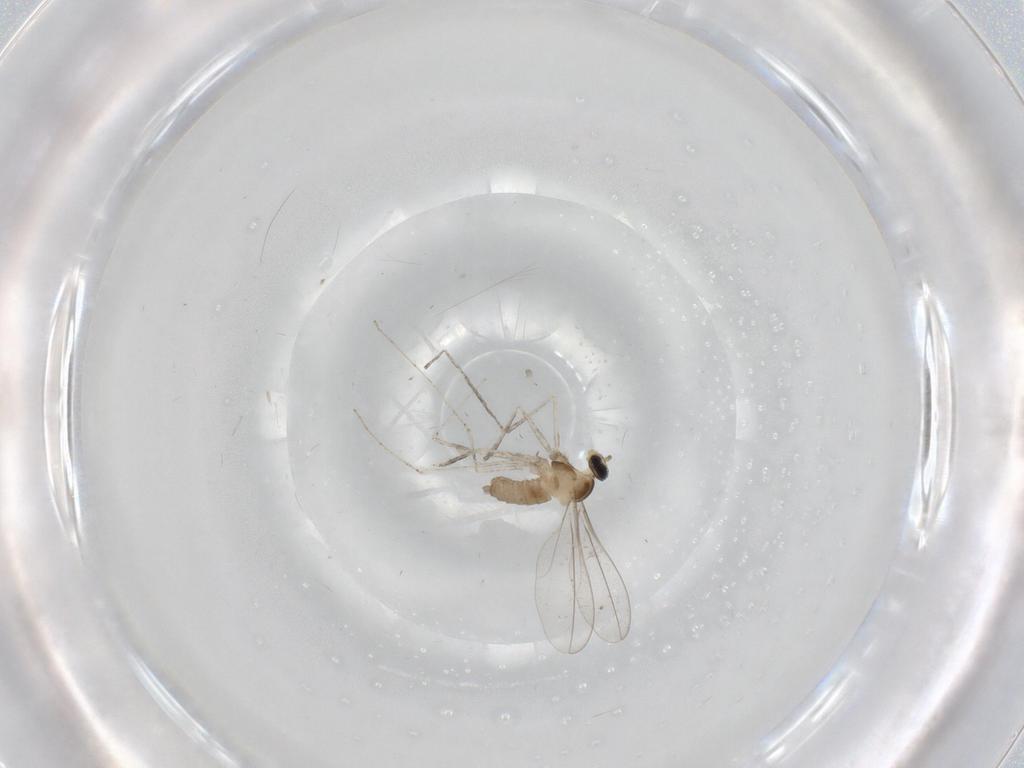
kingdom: Animalia
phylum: Arthropoda
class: Insecta
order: Diptera
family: Cecidomyiidae
